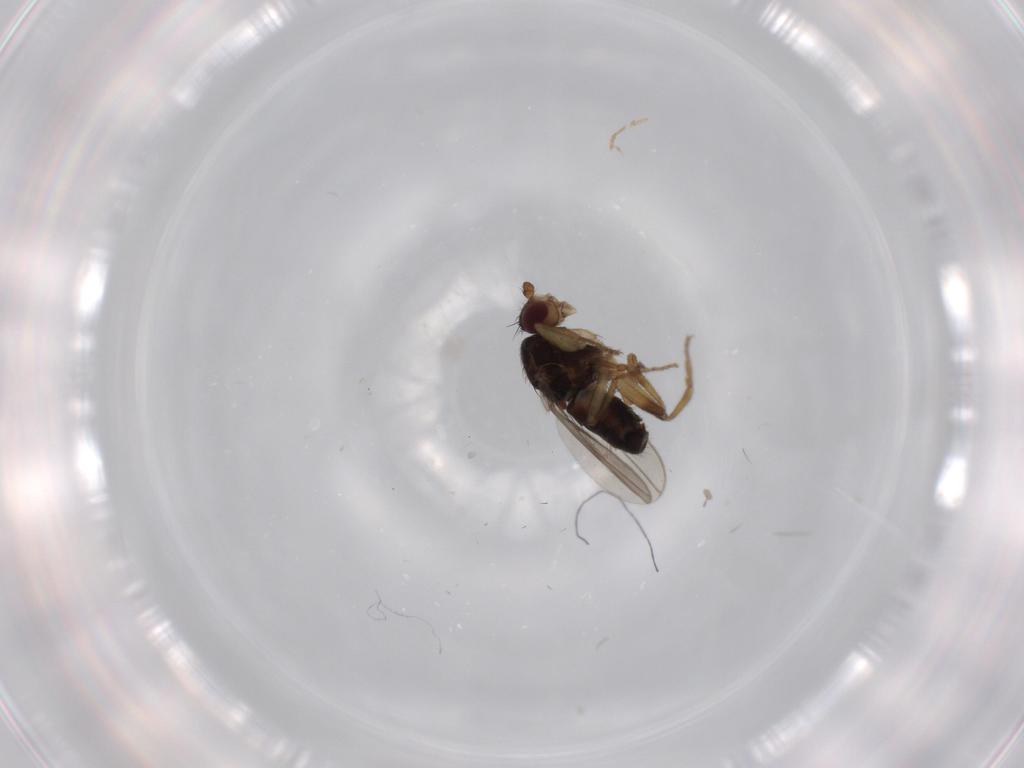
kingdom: Animalia
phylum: Arthropoda
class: Insecta
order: Diptera
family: Sphaeroceridae
